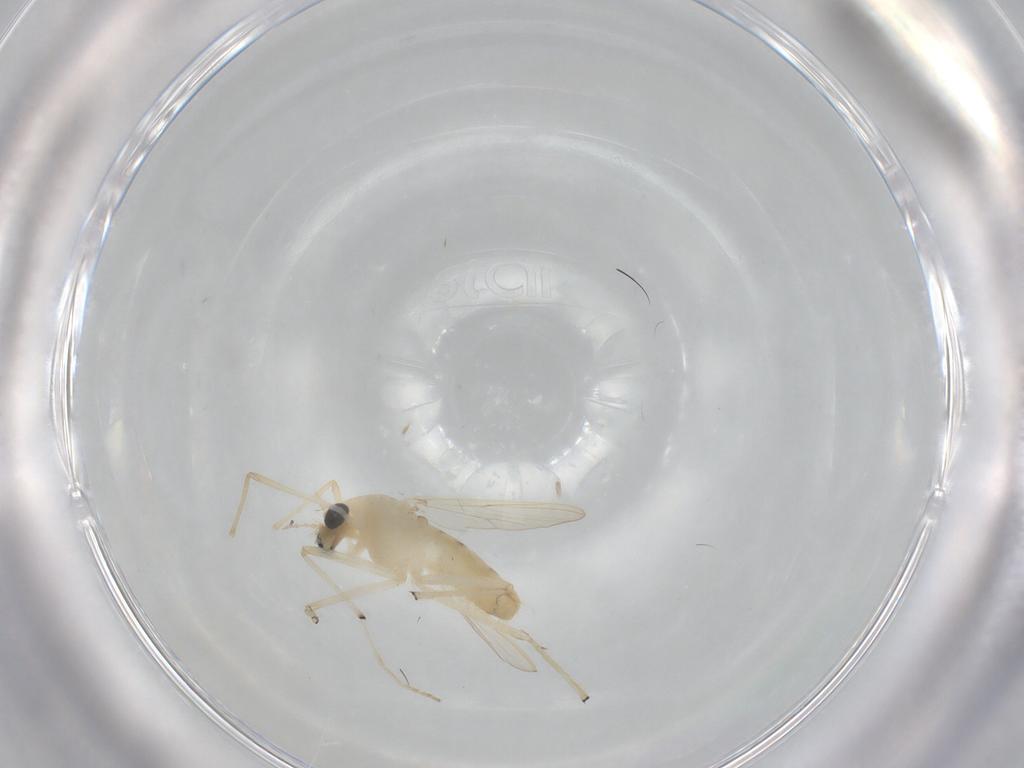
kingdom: Animalia
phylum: Arthropoda
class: Insecta
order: Diptera
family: Chironomidae
